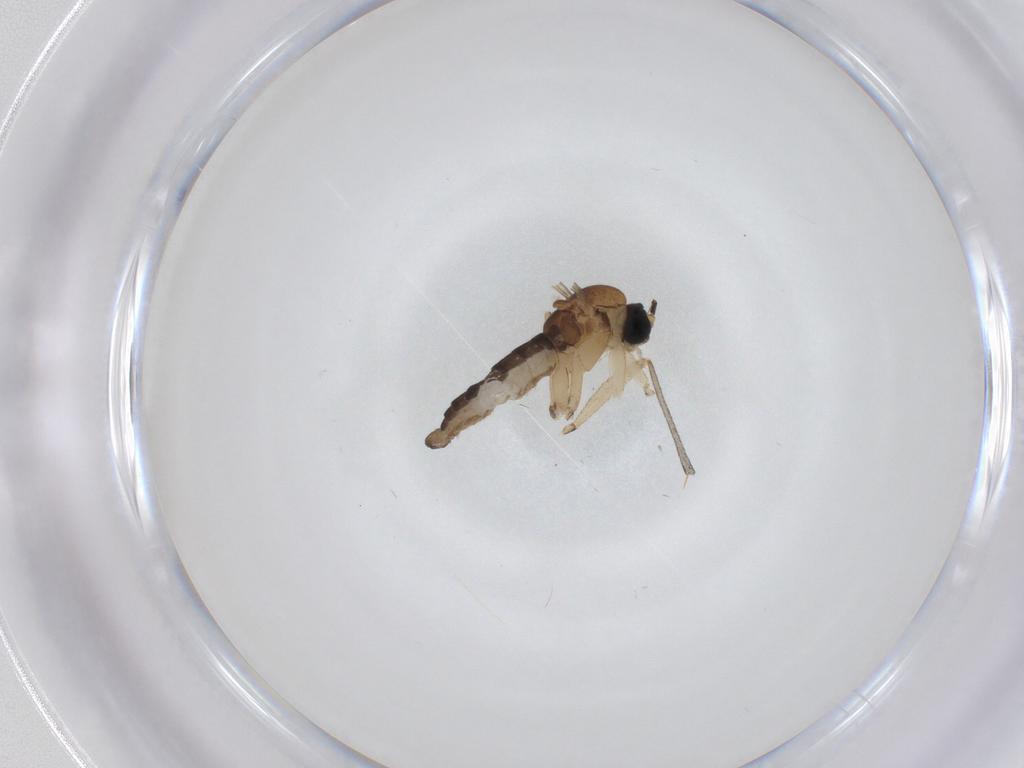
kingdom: Animalia
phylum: Arthropoda
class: Insecta
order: Diptera
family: Sciaridae
